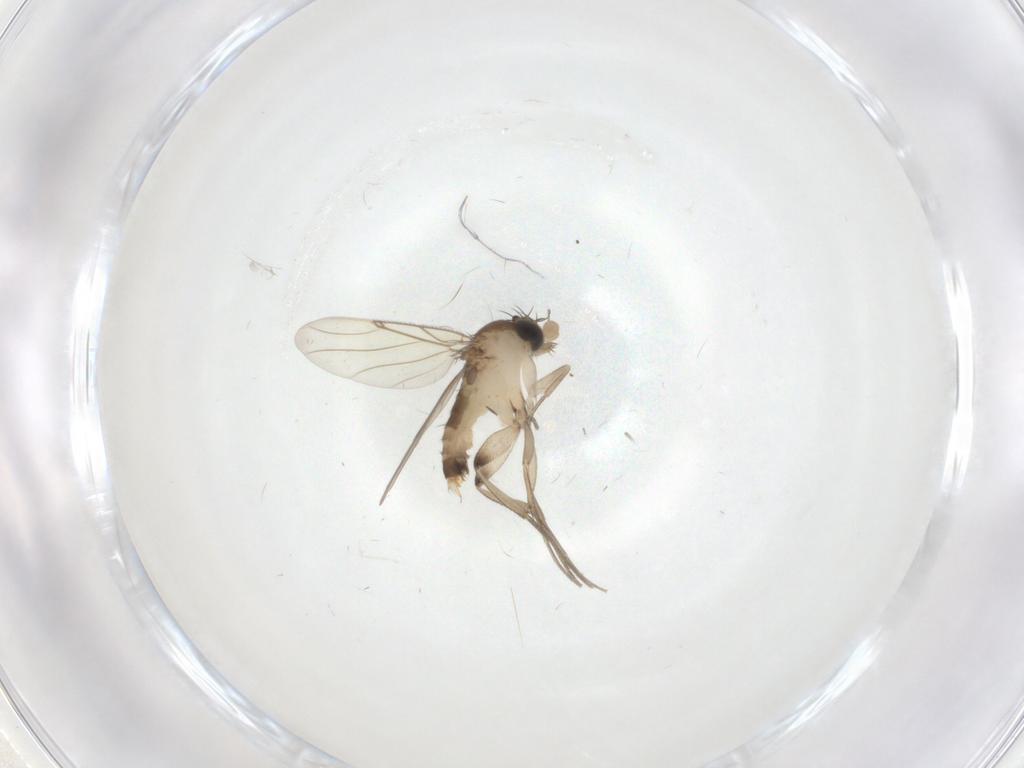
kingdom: Animalia
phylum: Arthropoda
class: Insecta
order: Diptera
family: Phoridae
